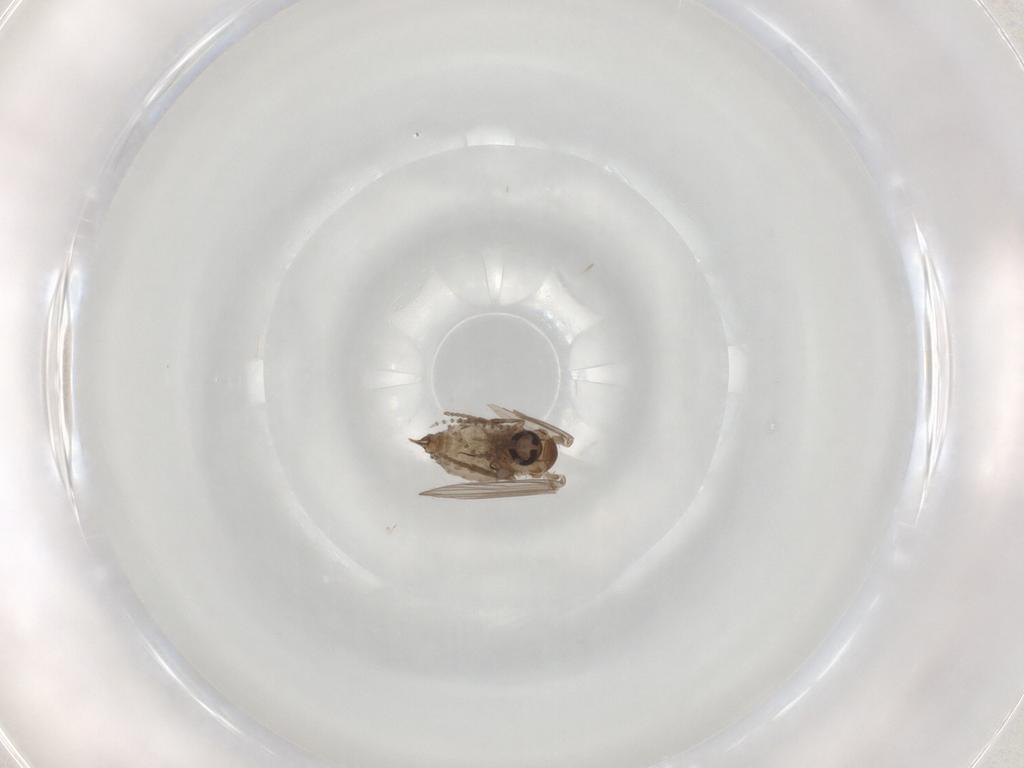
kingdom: Animalia
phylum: Arthropoda
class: Insecta
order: Diptera
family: Psychodidae
